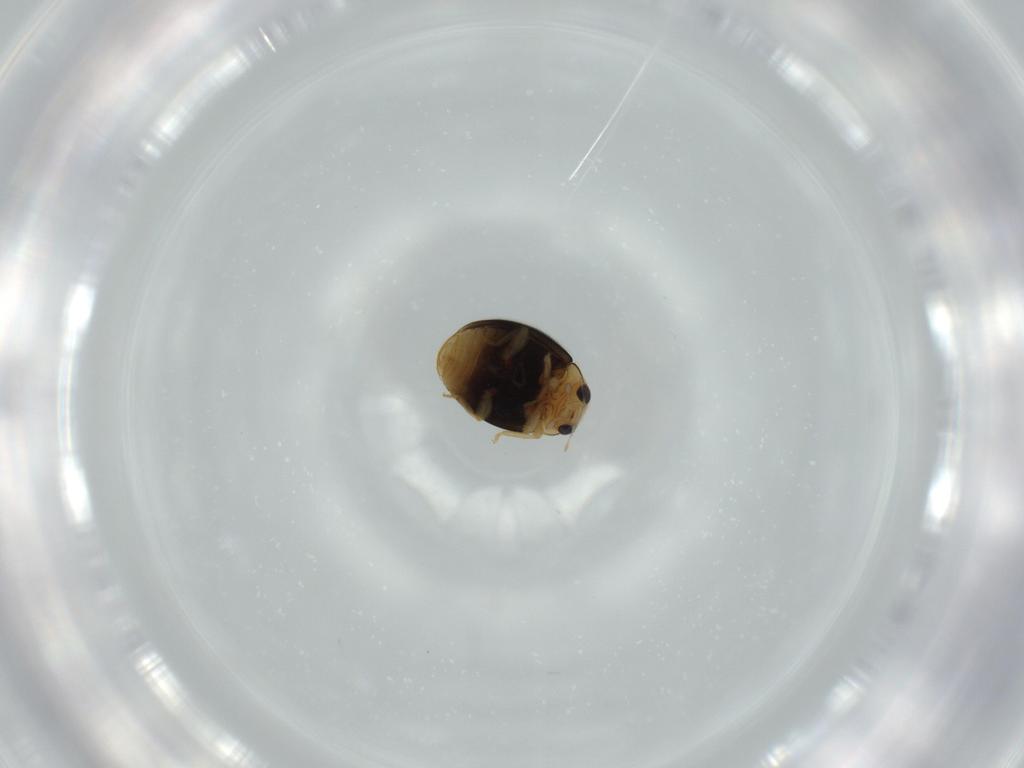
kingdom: Animalia
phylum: Arthropoda
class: Insecta
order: Coleoptera
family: Coccinellidae
